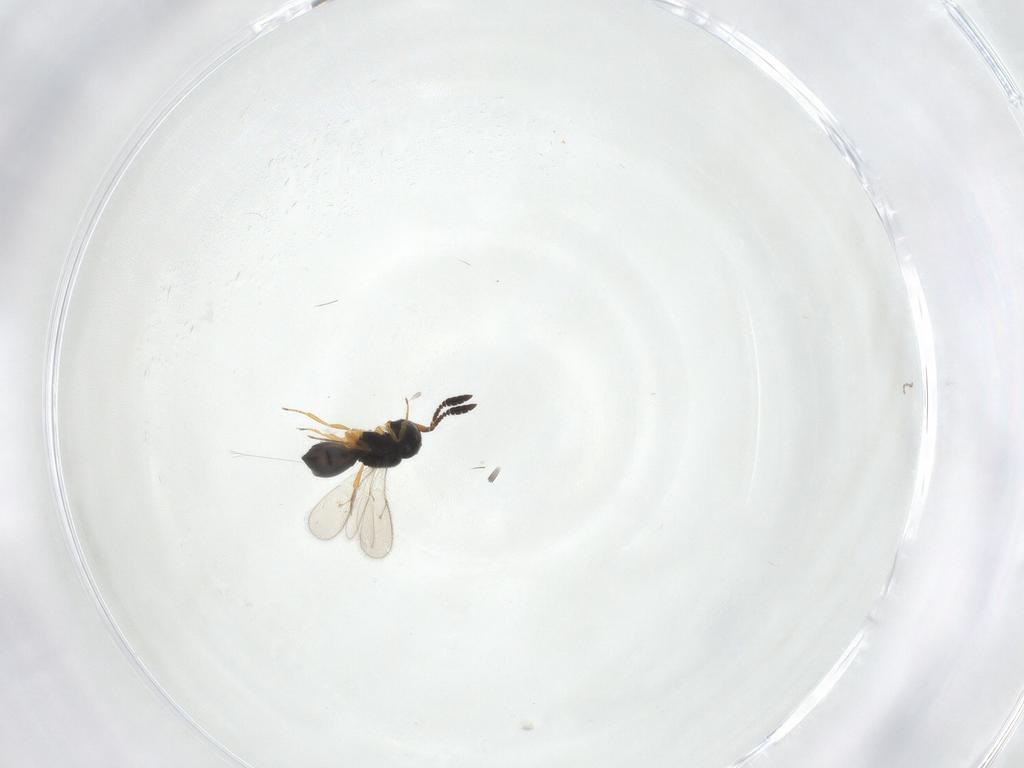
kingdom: Animalia
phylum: Arthropoda
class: Insecta
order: Hymenoptera
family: Scelionidae
